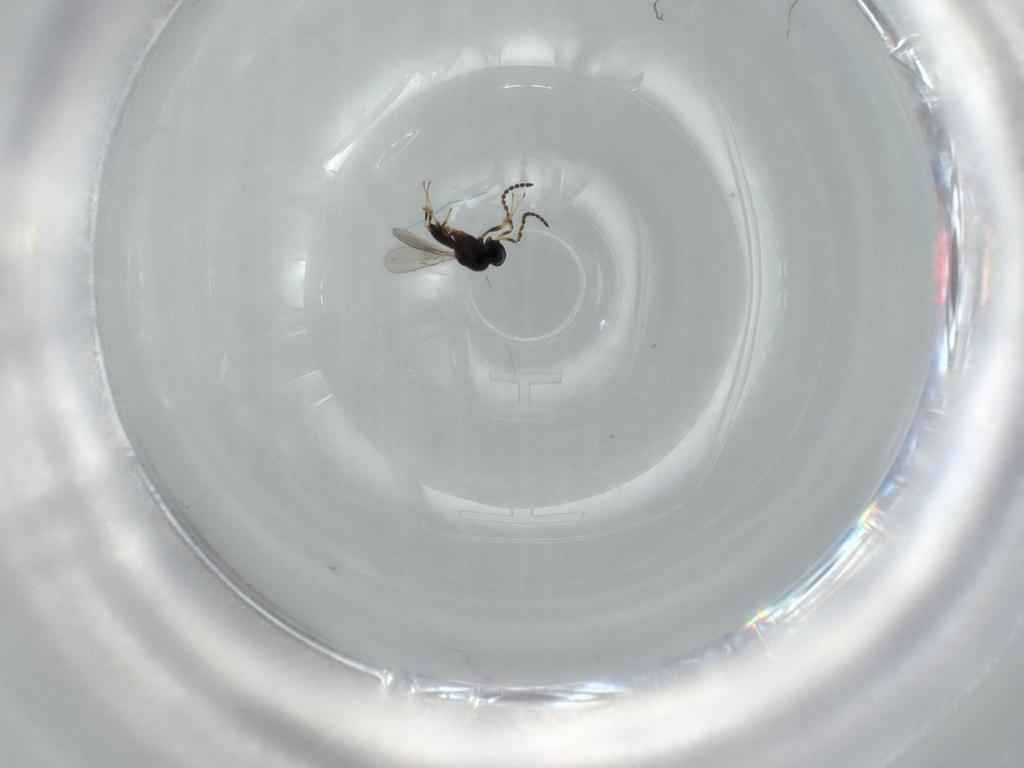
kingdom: Animalia
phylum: Arthropoda
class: Insecta
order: Hymenoptera
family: Scelionidae
